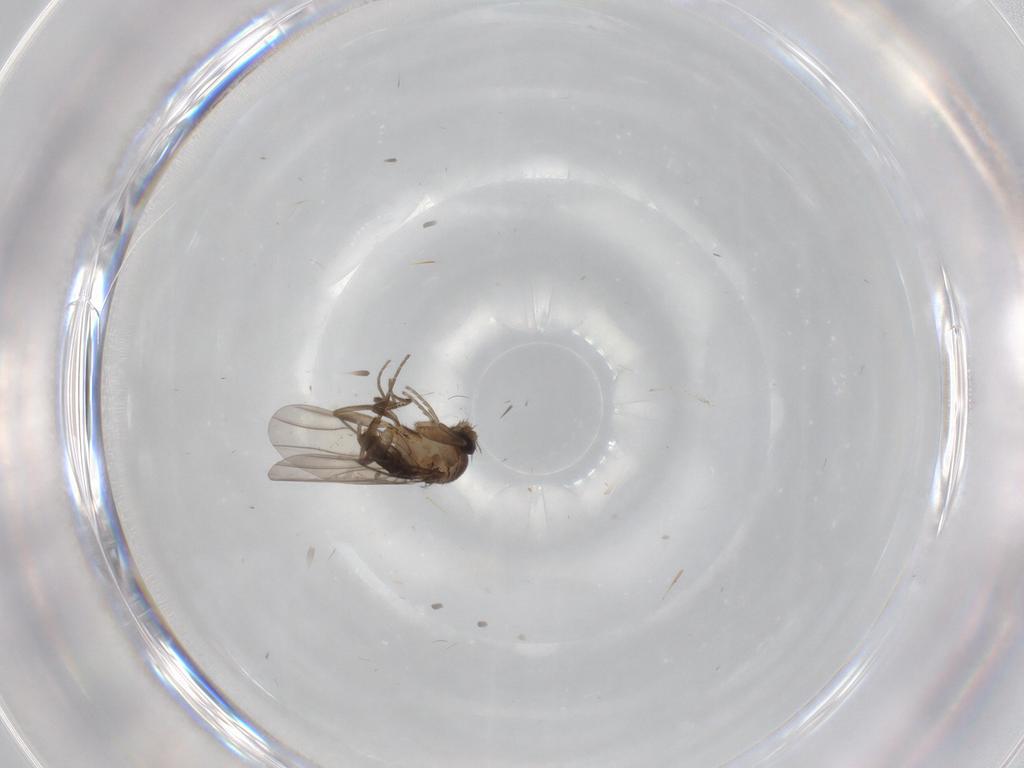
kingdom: Animalia
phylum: Arthropoda
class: Insecta
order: Diptera
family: Cecidomyiidae
